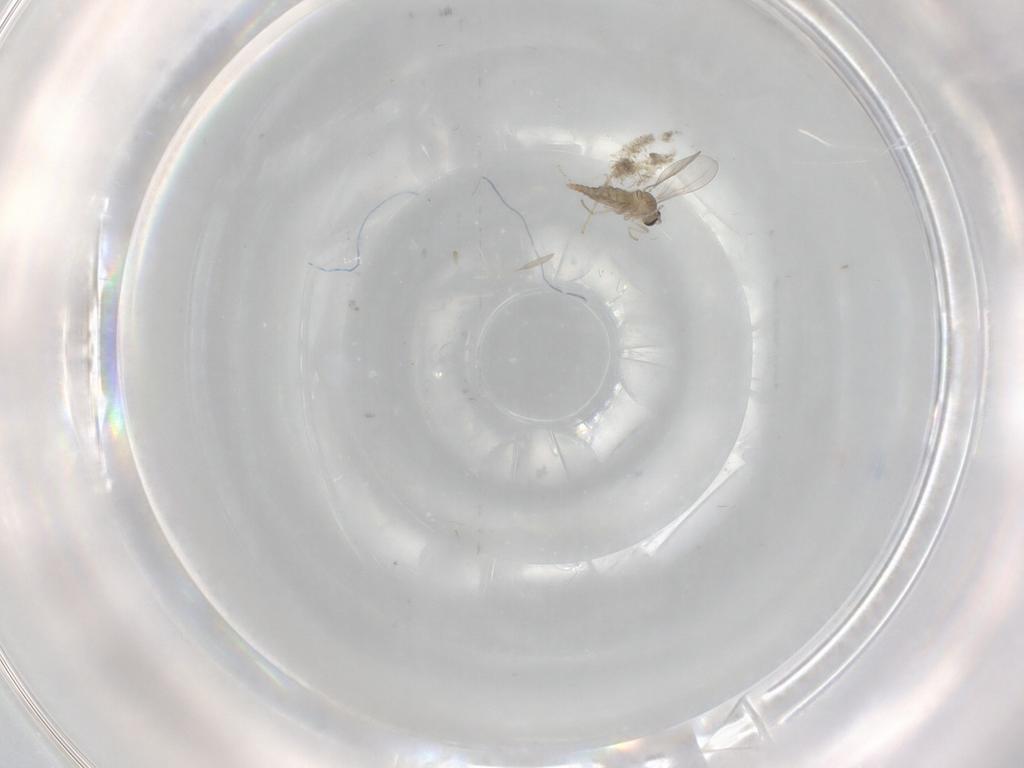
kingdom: Animalia
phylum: Arthropoda
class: Insecta
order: Diptera
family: Cecidomyiidae
